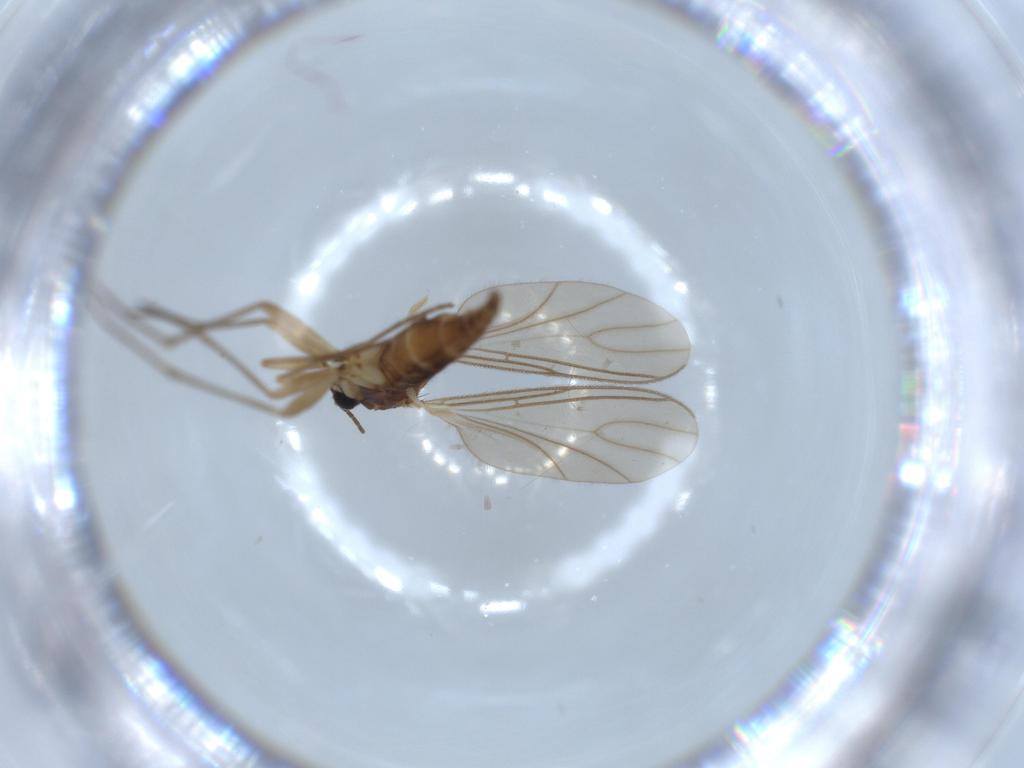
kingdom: Animalia
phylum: Arthropoda
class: Insecta
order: Diptera
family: Sciaridae
